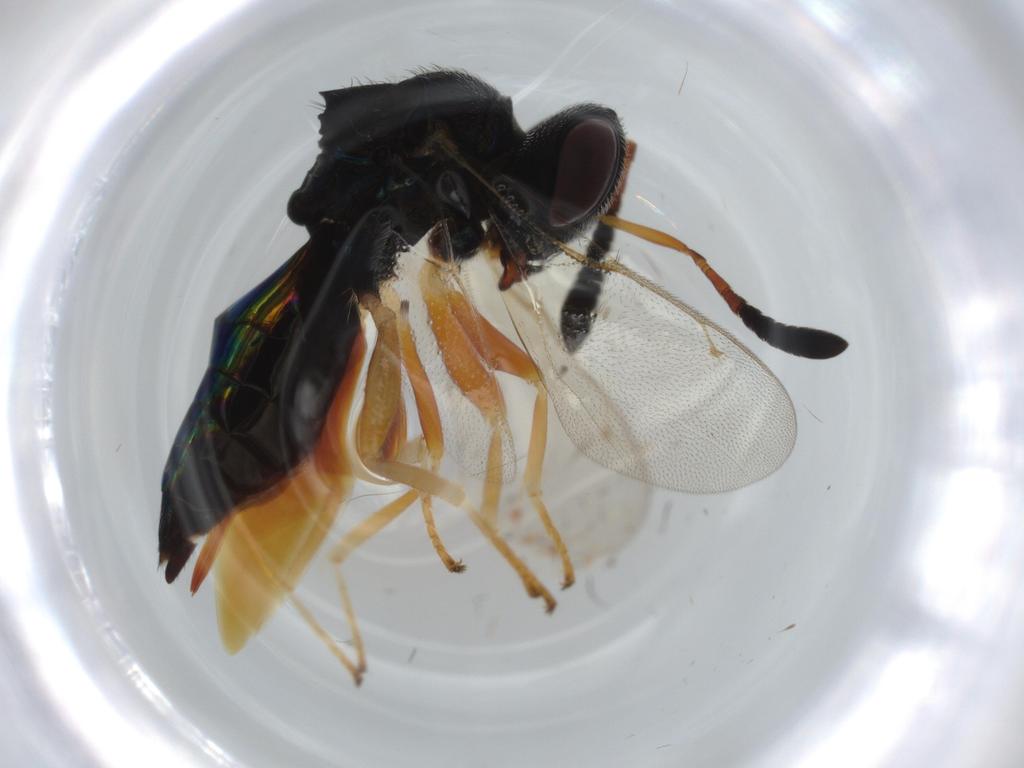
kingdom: Animalia
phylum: Arthropoda
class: Insecta
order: Hymenoptera
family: Pteromalidae
